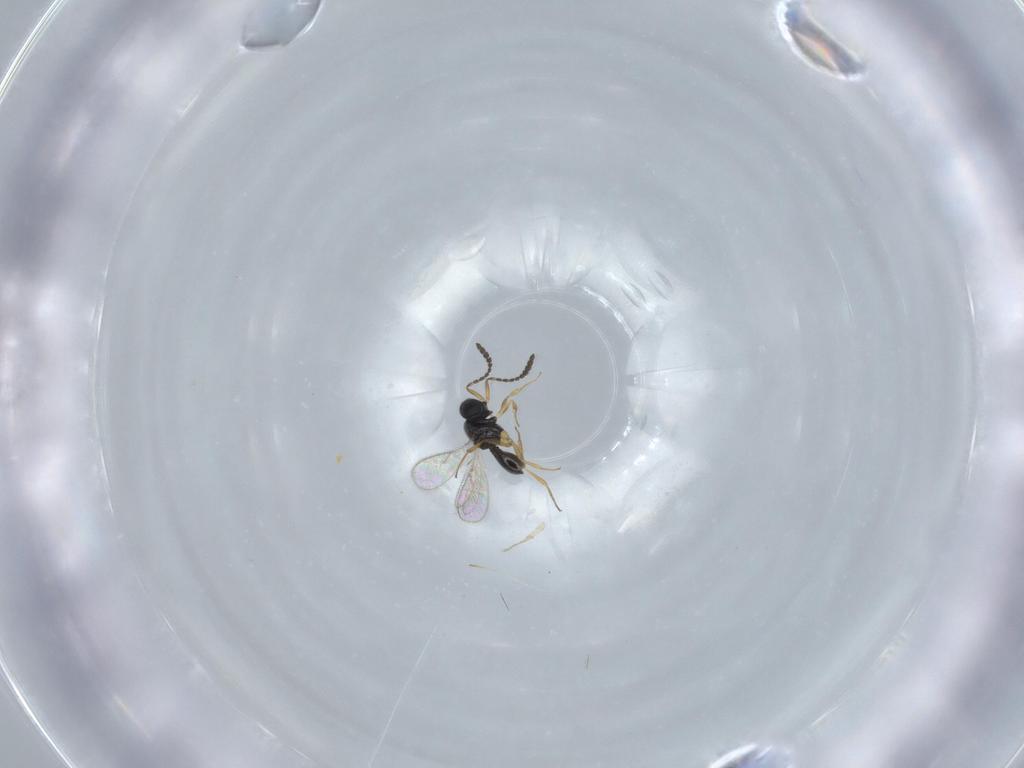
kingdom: Animalia
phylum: Arthropoda
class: Insecta
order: Hymenoptera
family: Scelionidae
